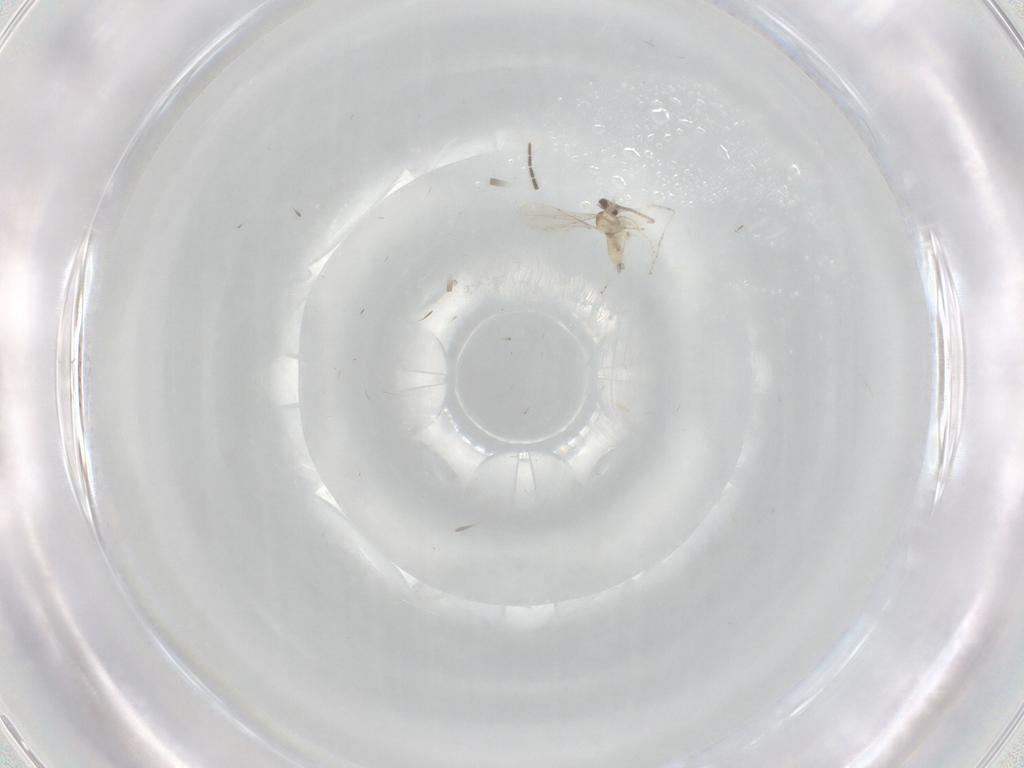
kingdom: Animalia
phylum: Arthropoda
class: Insecta
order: Diptera
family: Cecidomyiidae
